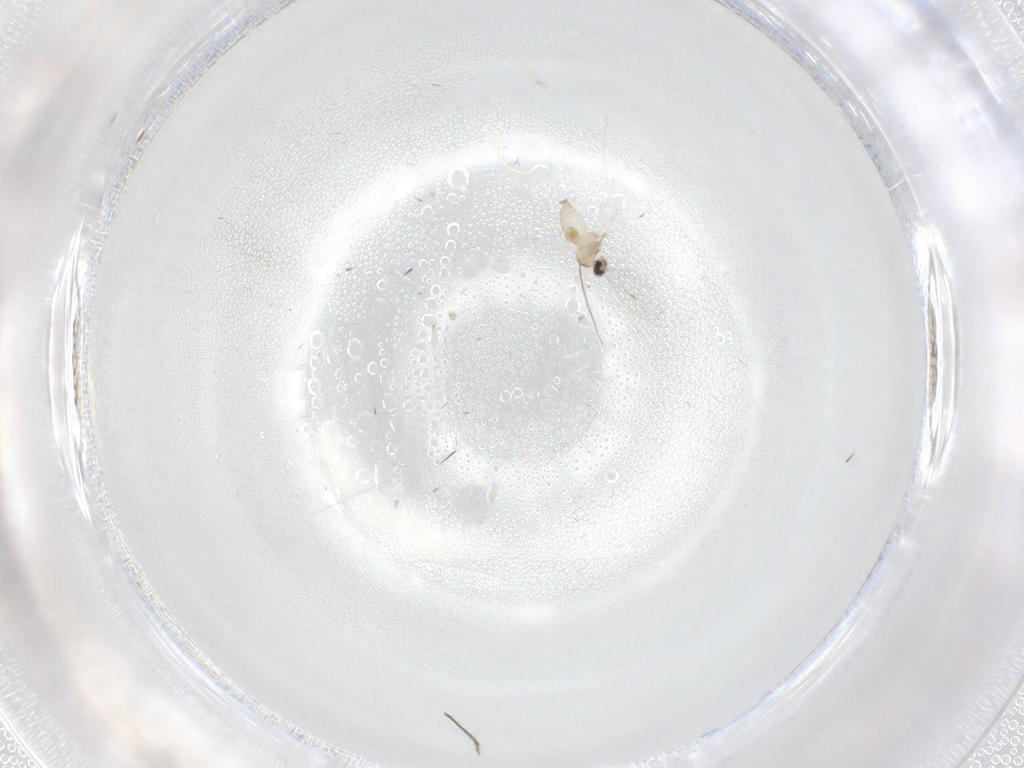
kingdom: Animalia
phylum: Arthropoda
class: Insecta
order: Diptera
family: Cecidomyiidae
